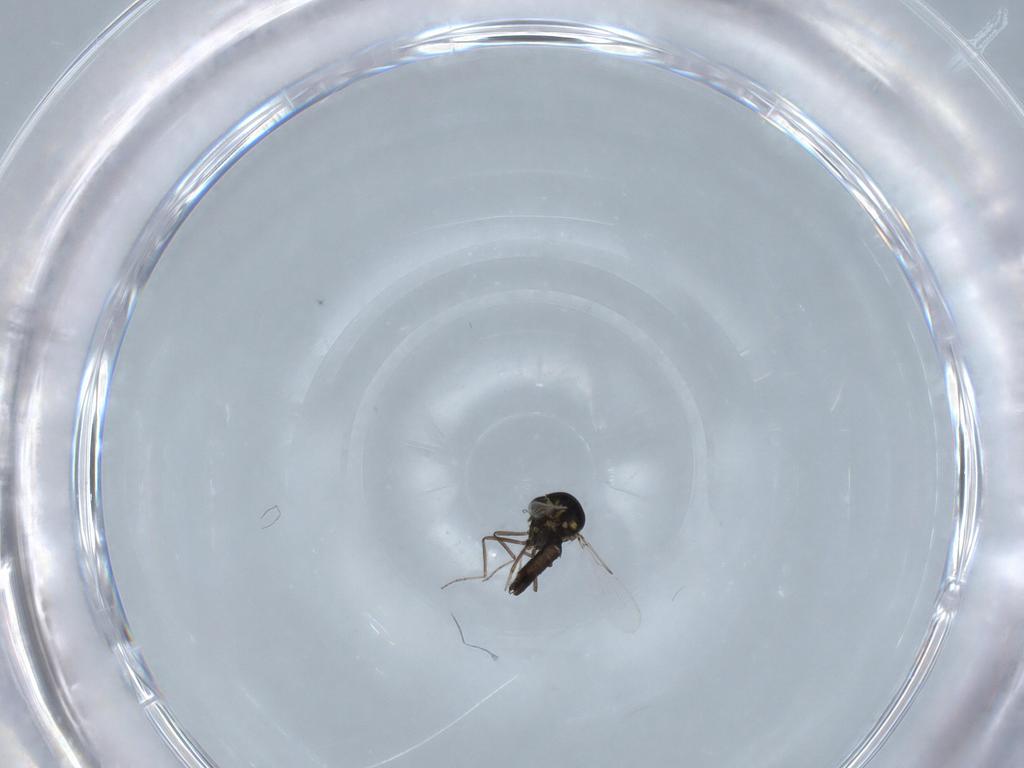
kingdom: Animalia
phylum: Arthropoda
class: Insecta
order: Diptera
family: Ceratopogonidae
